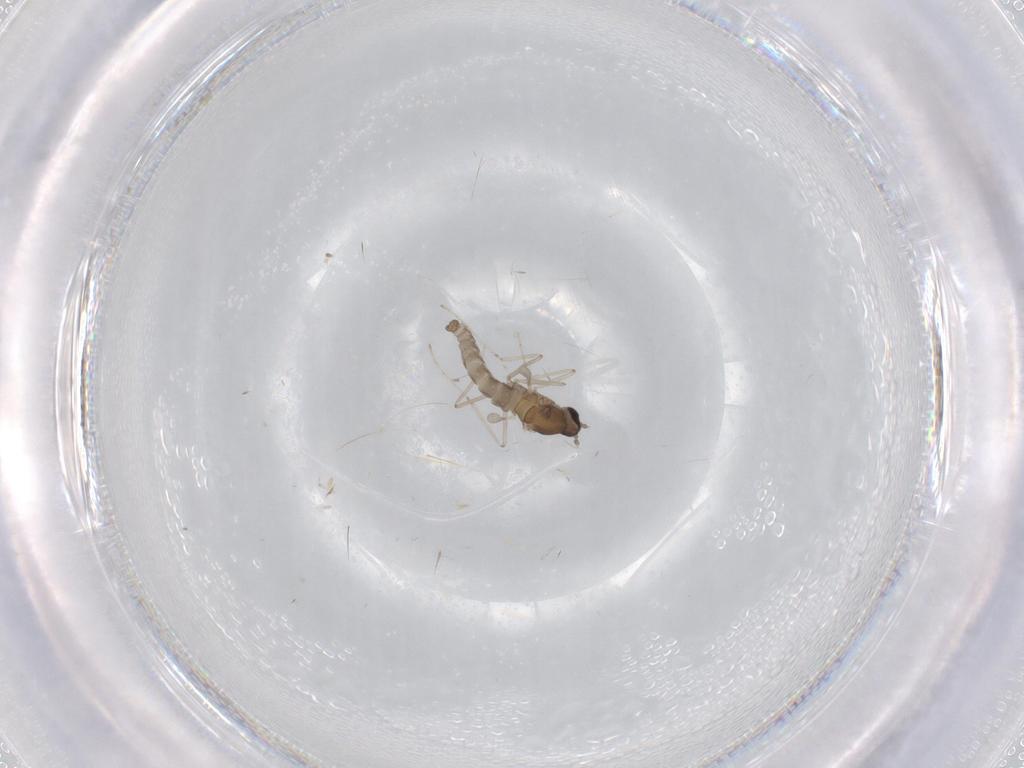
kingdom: Animalia
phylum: Arthropoda
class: Insecta
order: Diptera
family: Cecidomyiidae
